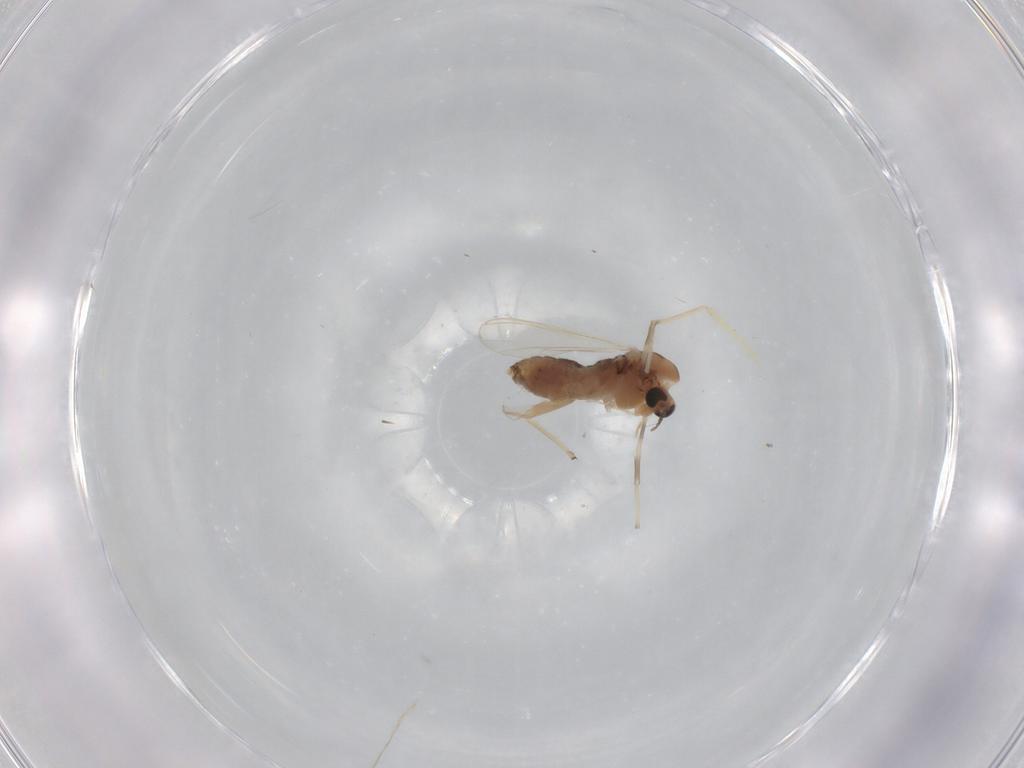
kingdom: Animalia
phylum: Arthropoda
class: Insecta
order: Diptera
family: Chironomidae
